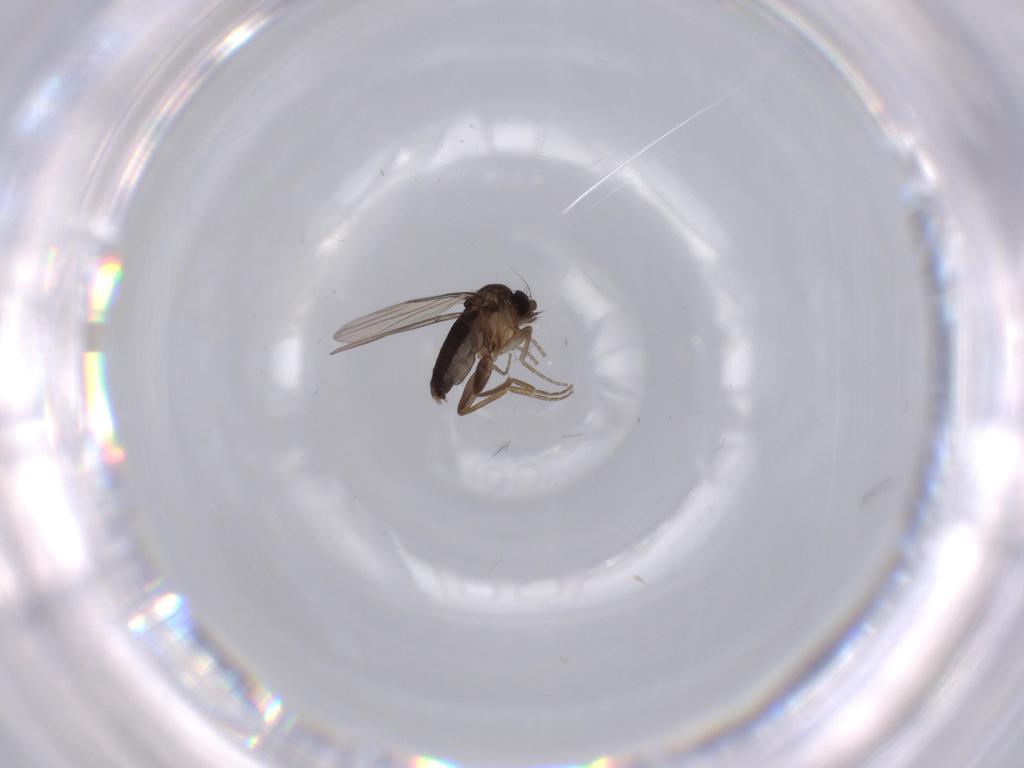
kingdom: Animalia
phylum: Arthropoda
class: Insecta
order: Diptera
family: Phoridae
